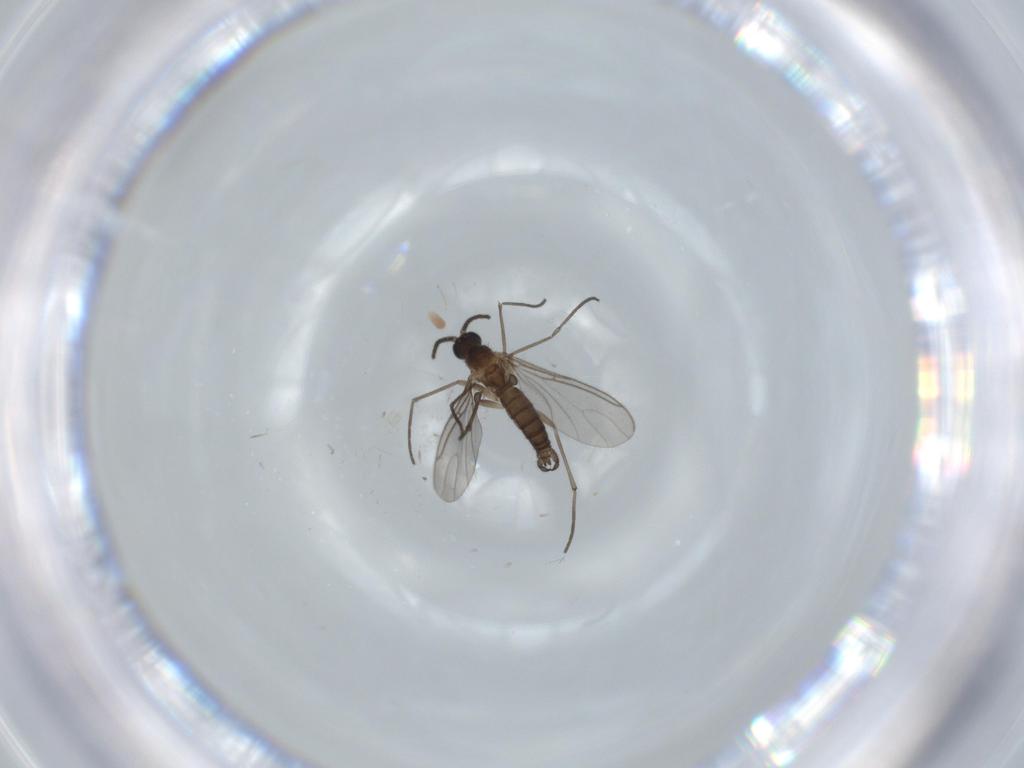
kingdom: Animalia
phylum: Arthropoda
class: Insecta
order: Diptera
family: Sciaridae
